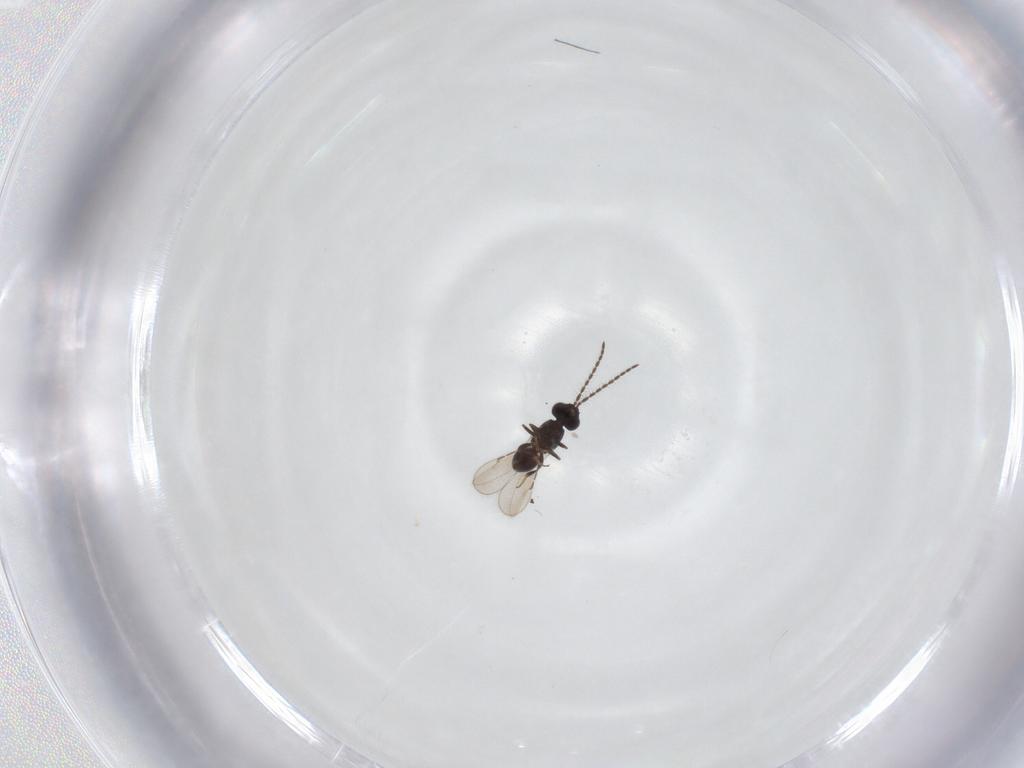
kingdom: Animalia
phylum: Arthropoda
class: Insecta
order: Hymenoptera
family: Ceraphronidae
